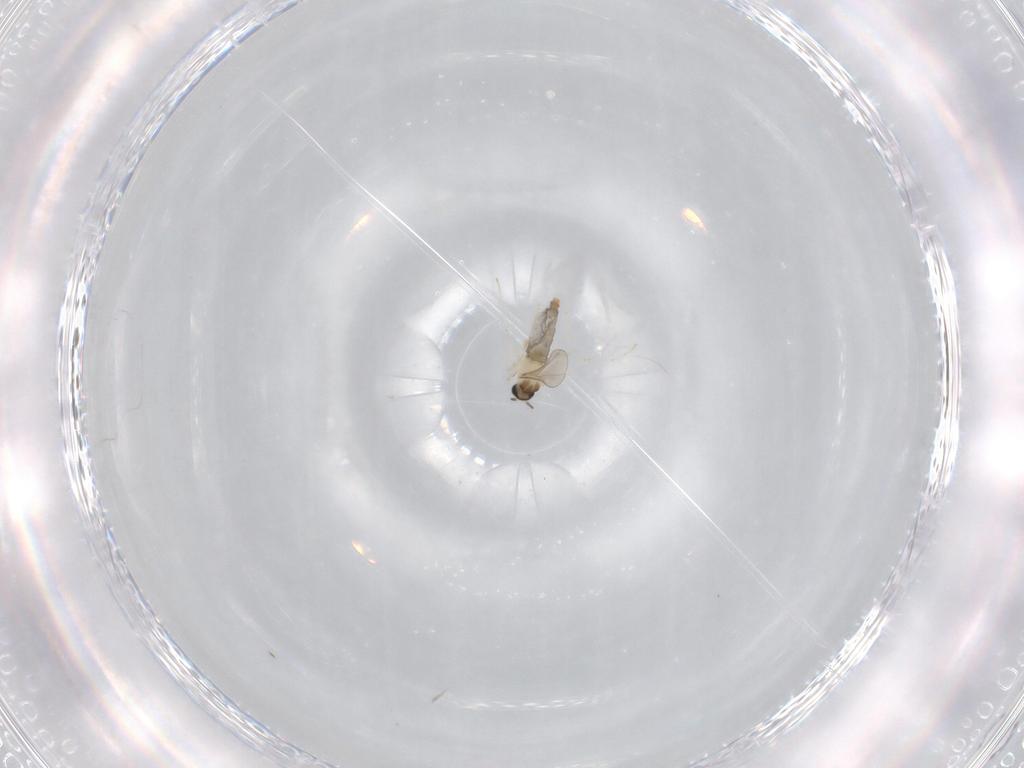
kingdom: Animalia
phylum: Arthropoda
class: Insecta
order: Diptera
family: Cecidomyiidae
